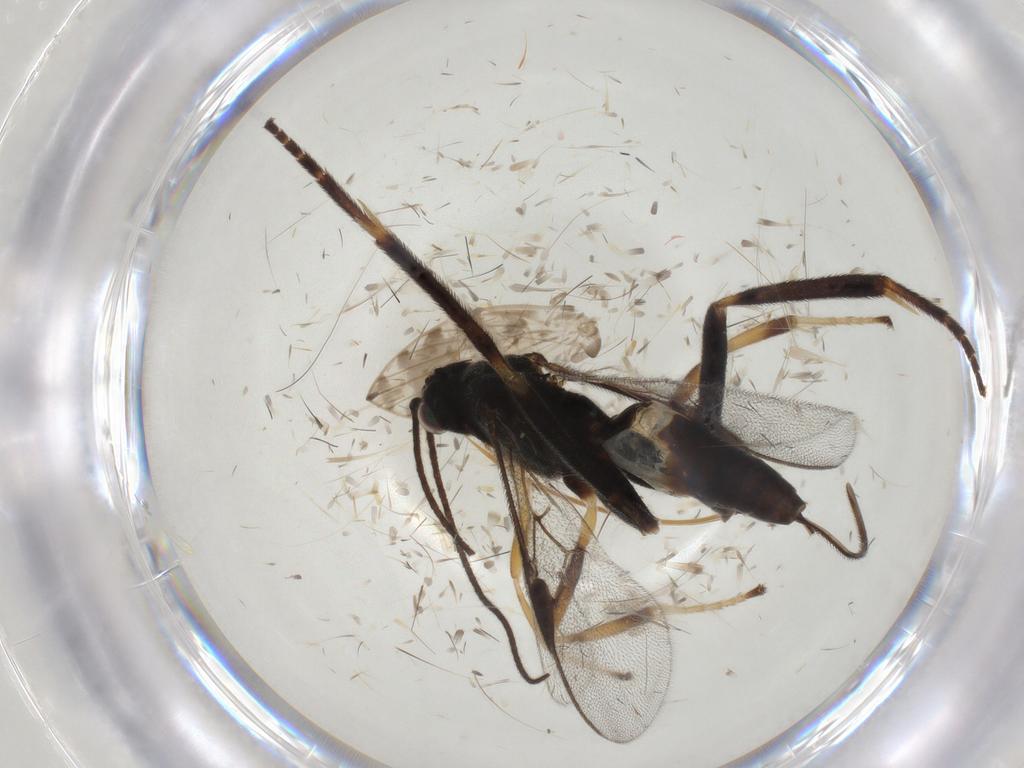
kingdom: Animalia
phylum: Arthropoda
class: Insecta
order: Hymenoptera
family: Braconidae
